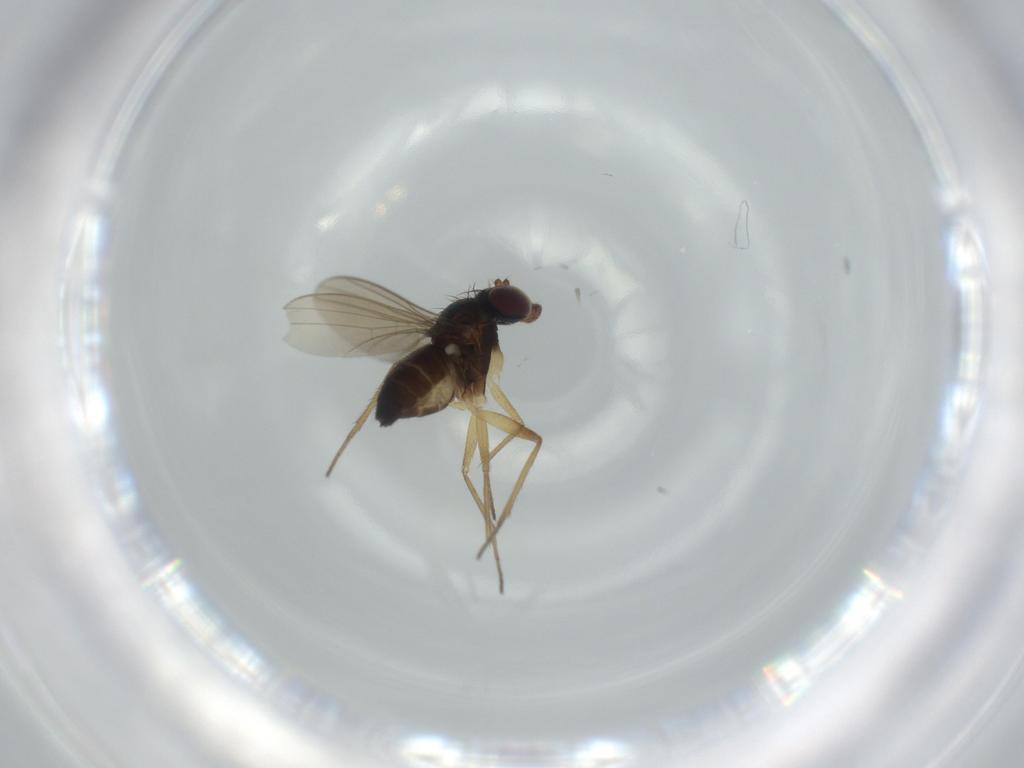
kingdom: Animalia
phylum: Arthropoda
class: Insecta
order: Diptera
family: Dolichopodidae
